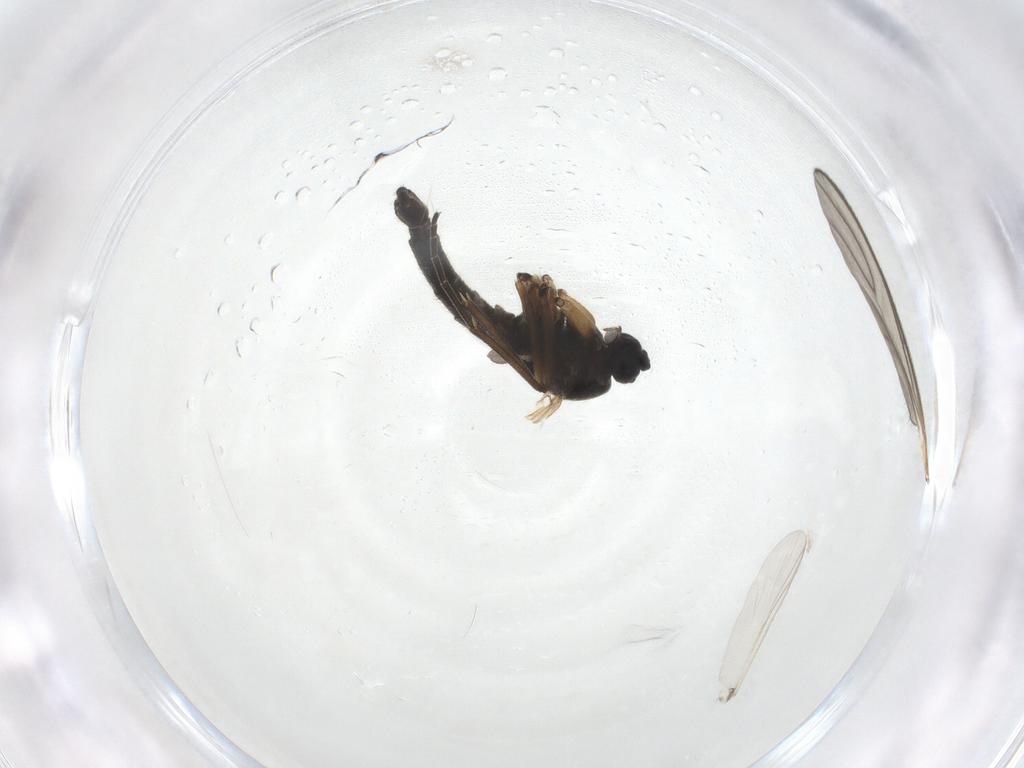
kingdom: Animalia
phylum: Arthropoda
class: Insecta
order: Diptera
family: Sciaridae
